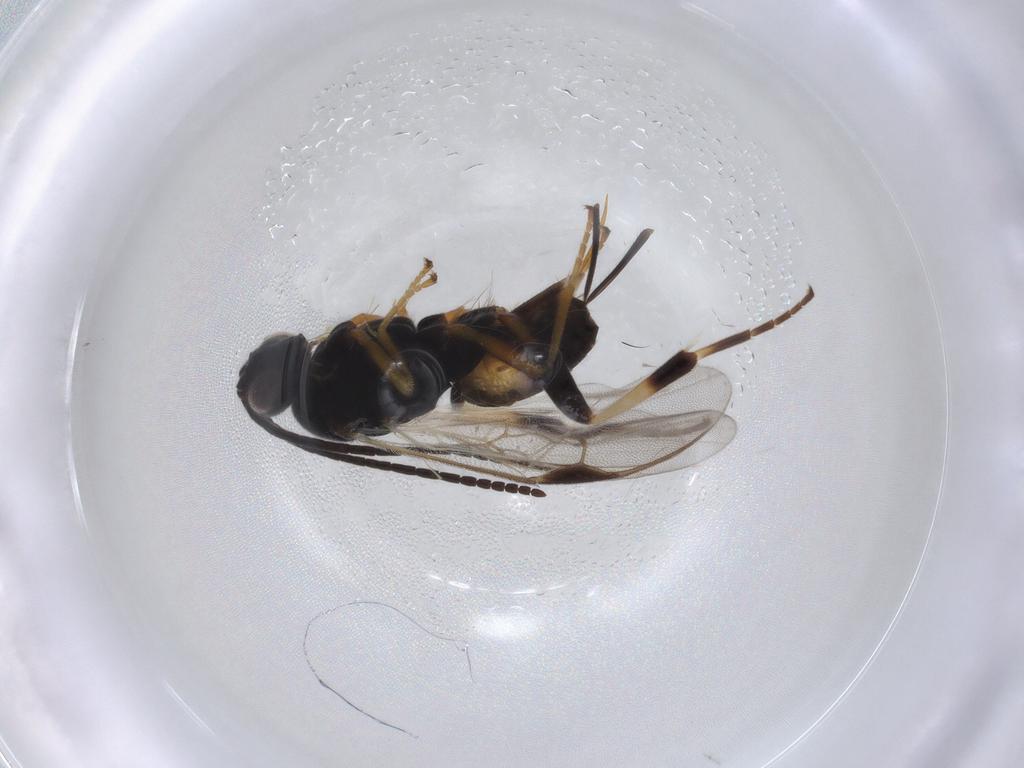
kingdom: Animalia
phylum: Arthropoda
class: Insecta
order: Hymenoptera
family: Braconidae
